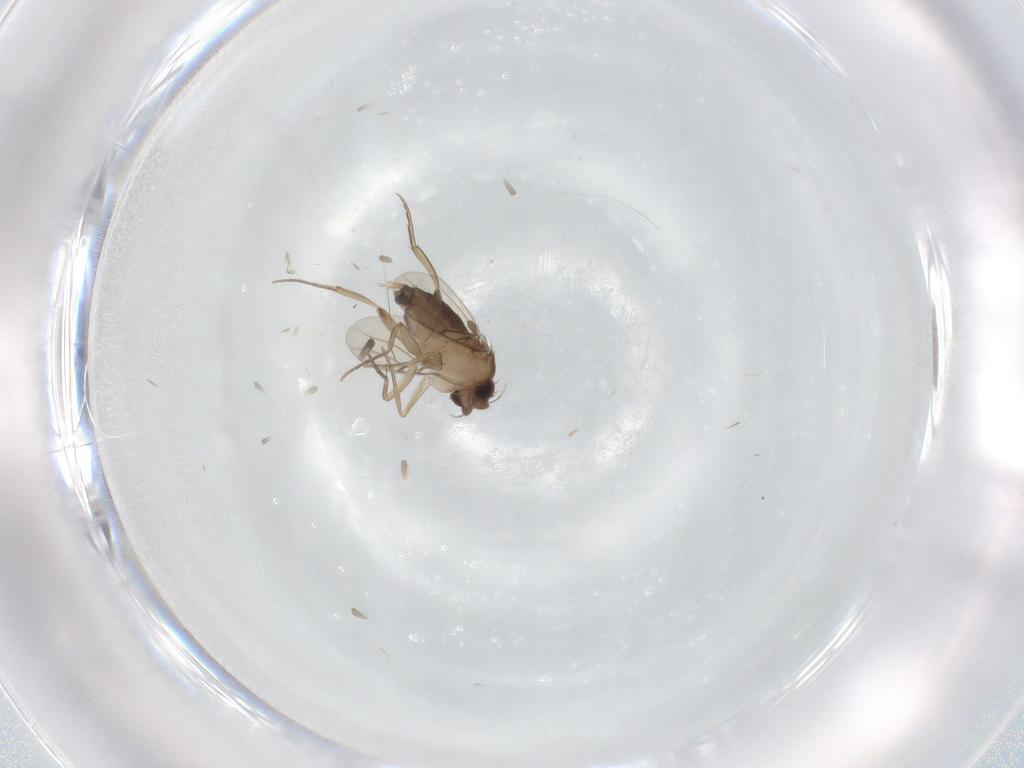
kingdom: Animalia
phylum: Arthropoda
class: Insecta
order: Diptera
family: Phoridae
